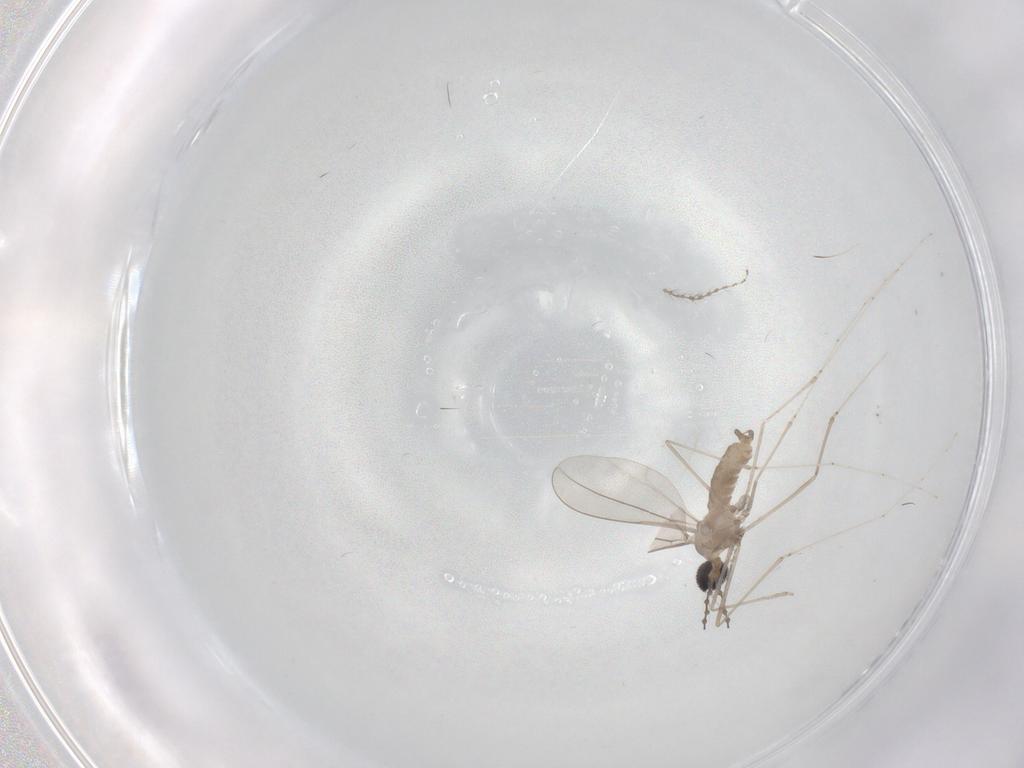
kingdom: Animalia
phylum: Arthropoda
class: Insecta
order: Diptera
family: Cecidomyiidae
